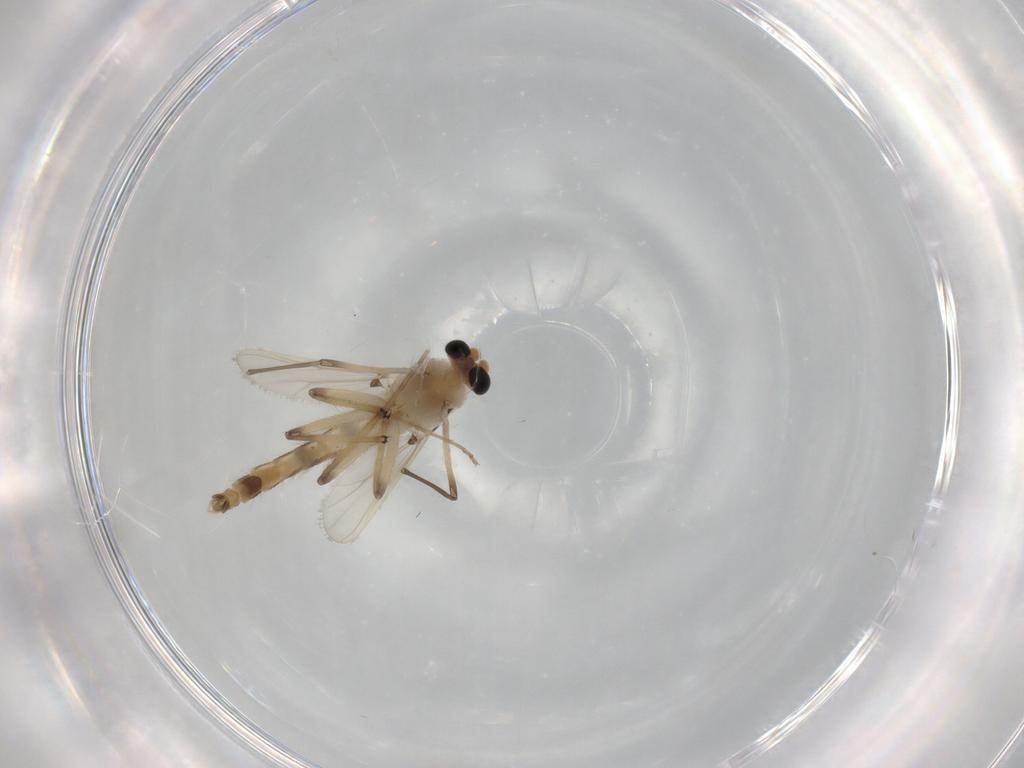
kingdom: Animalia
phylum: Arthropoda
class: Insecta
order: Diptera
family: Chironomidae
